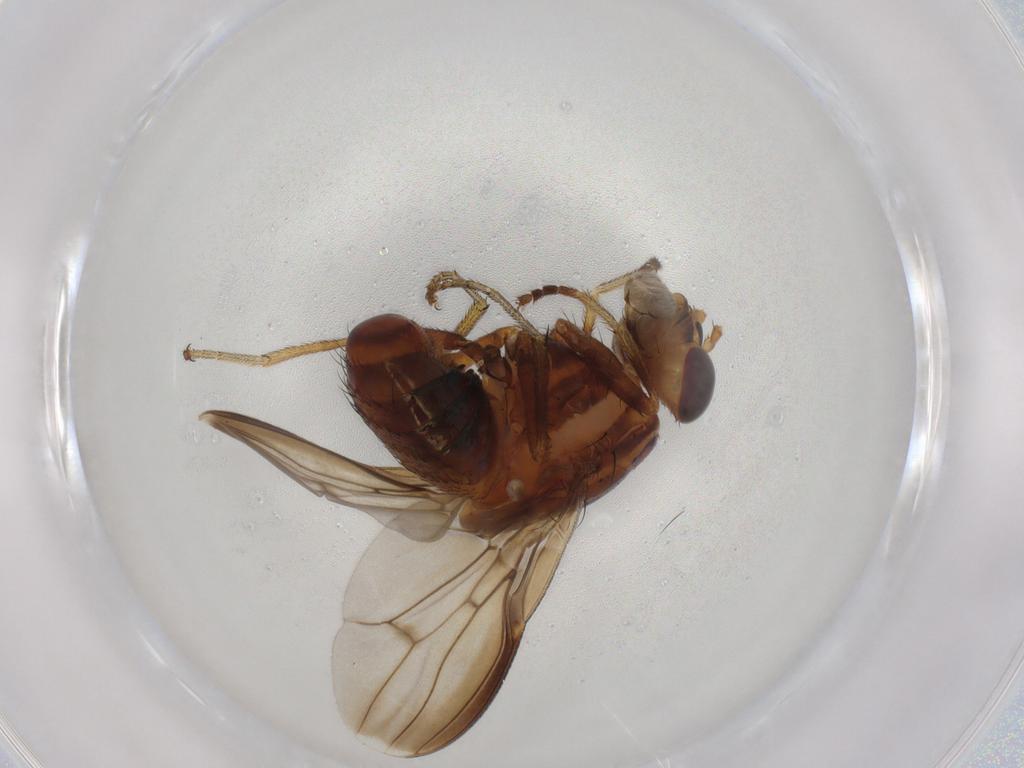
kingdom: Animalia
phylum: Arthropoda
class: Insecta
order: Diptera
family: Lauxaniidae
